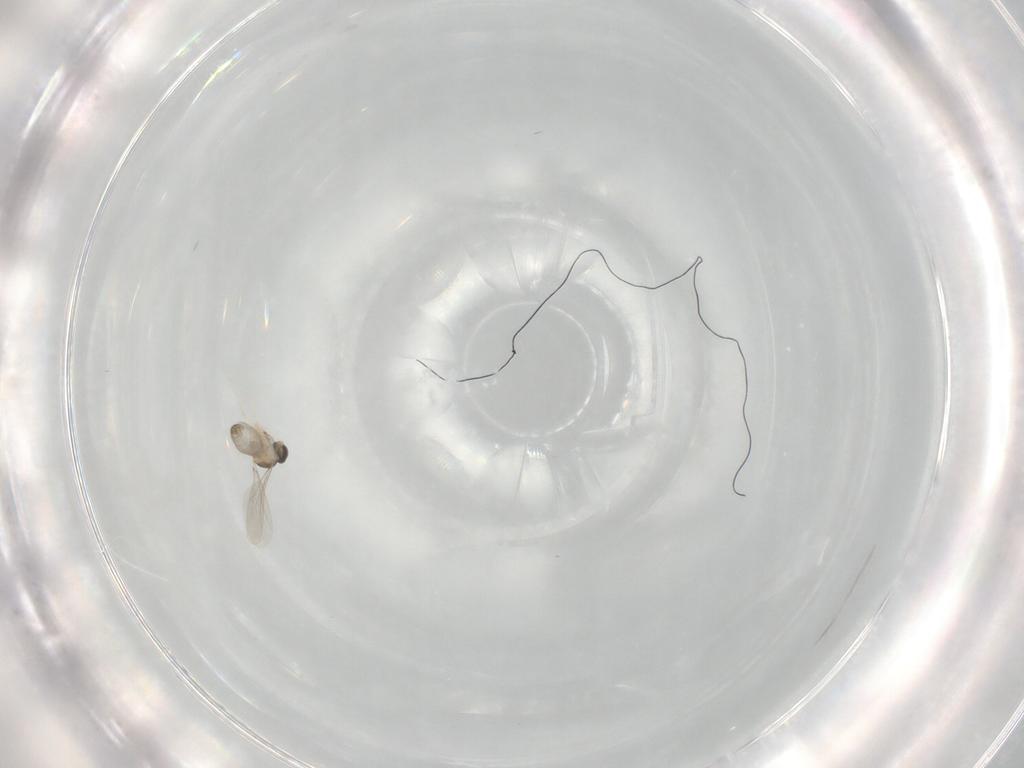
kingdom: Animalia
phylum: Arthropoda
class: Insecta
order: Diptera
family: Cecidomyiidae
